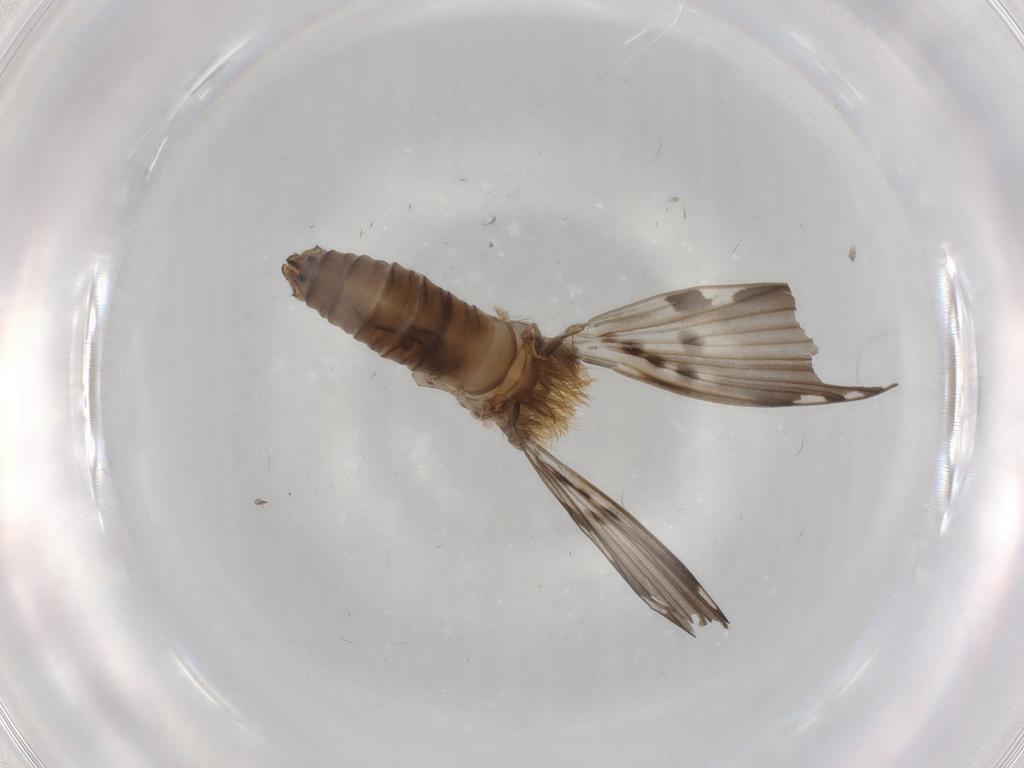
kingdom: Animalia
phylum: Arthropoda
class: Insecta
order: Diptera
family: Psychodidae
